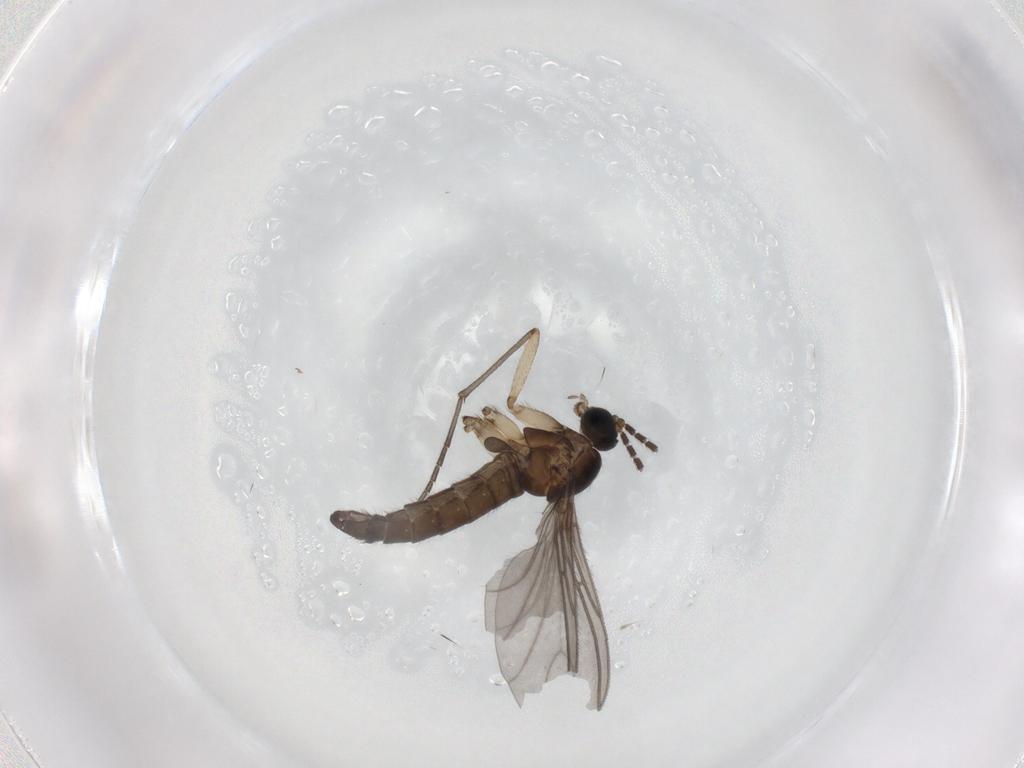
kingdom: Animalia
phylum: Arthropoda
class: Insecta
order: Diptera
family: Sciaridae
